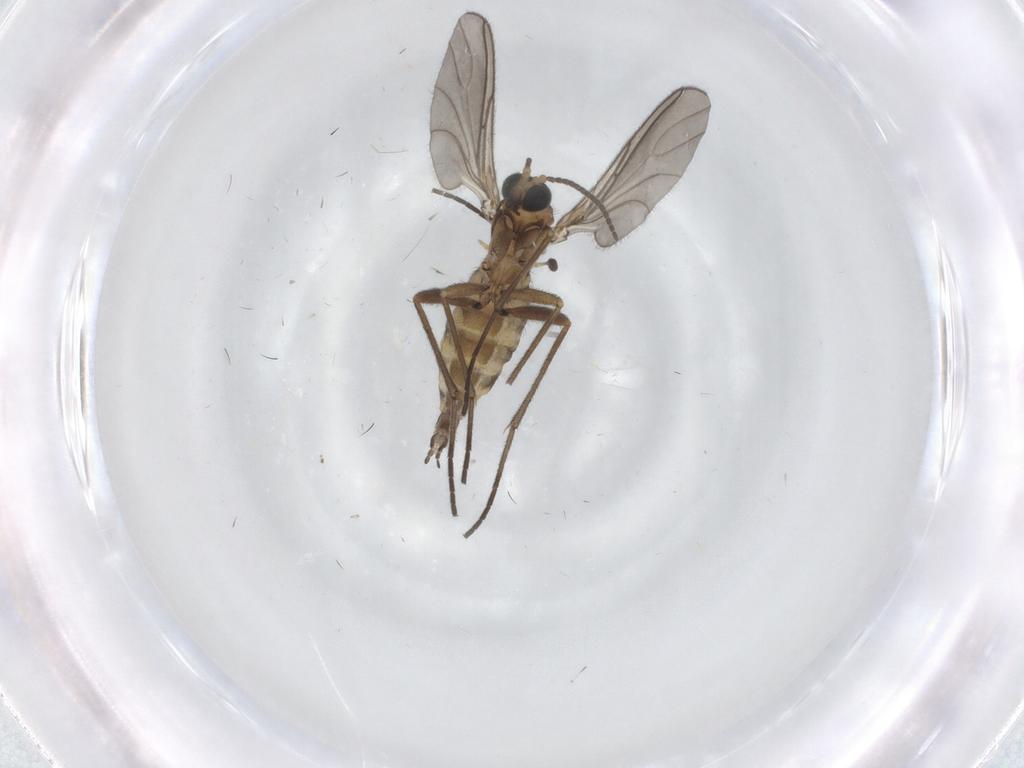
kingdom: Animalia
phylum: Arthropoda
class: Insecta
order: Diptera
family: Sciaridae
